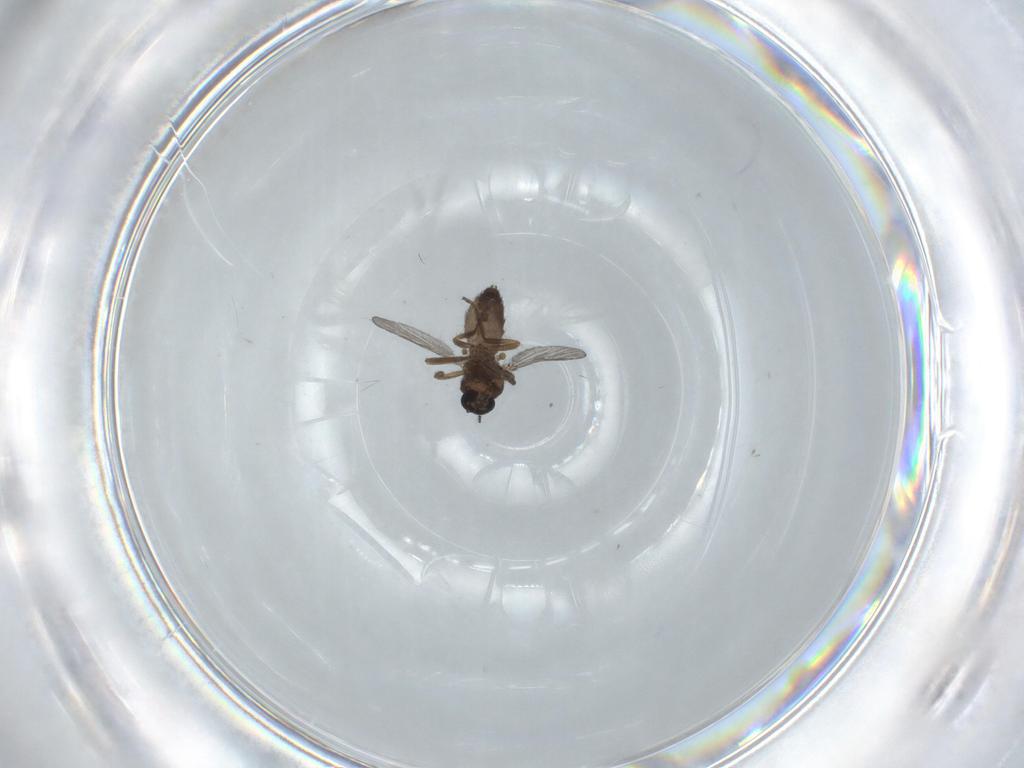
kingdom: Animalia
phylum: Arthropoda
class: Insecta
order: Diptera
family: Psychodidae
